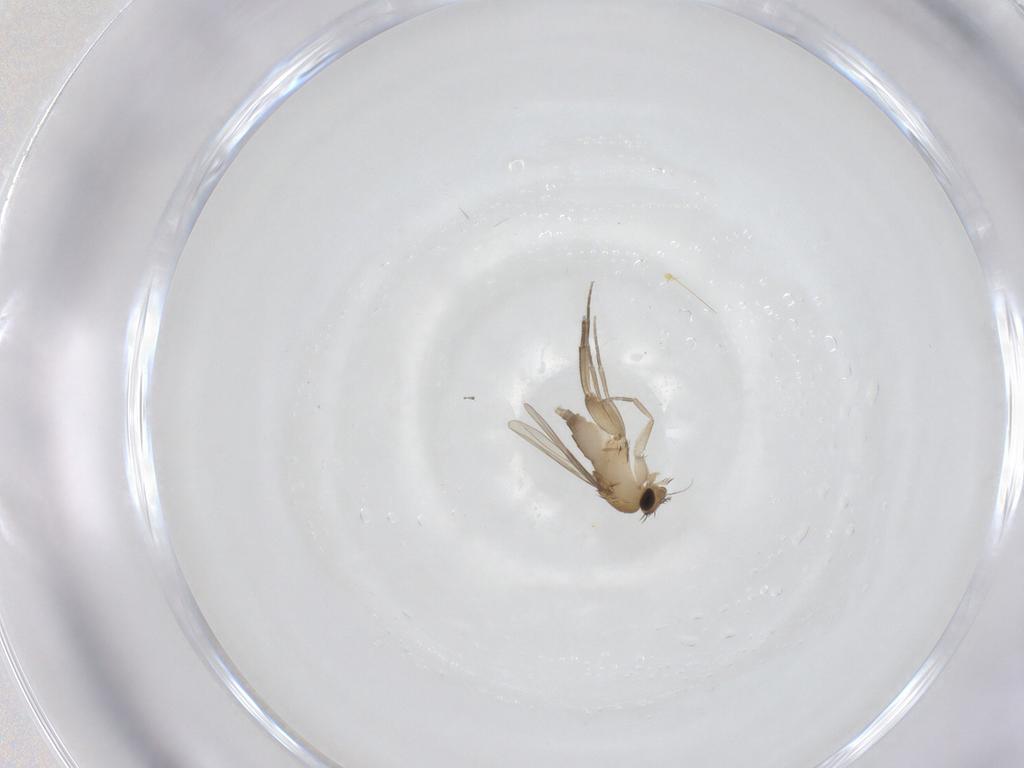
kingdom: Animalia
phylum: Arthropoda
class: Insecta
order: Diptera
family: Phoridae
